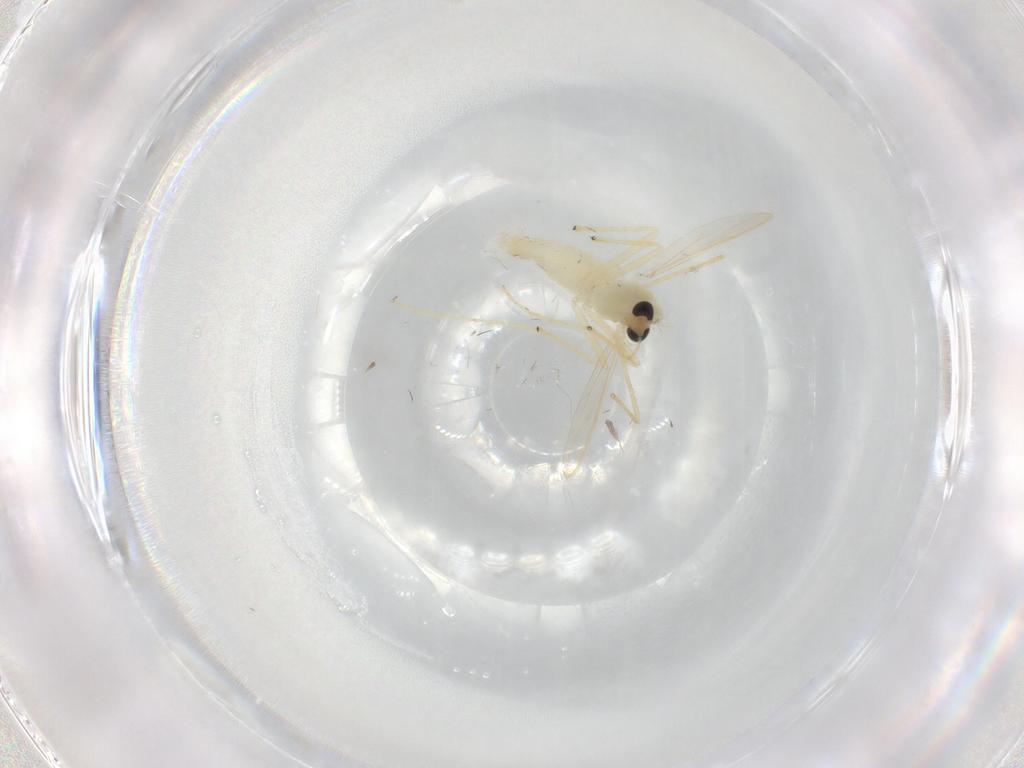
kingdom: Animalia
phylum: Arthropoda
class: Insecta
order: Diptera
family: Chironomidae
